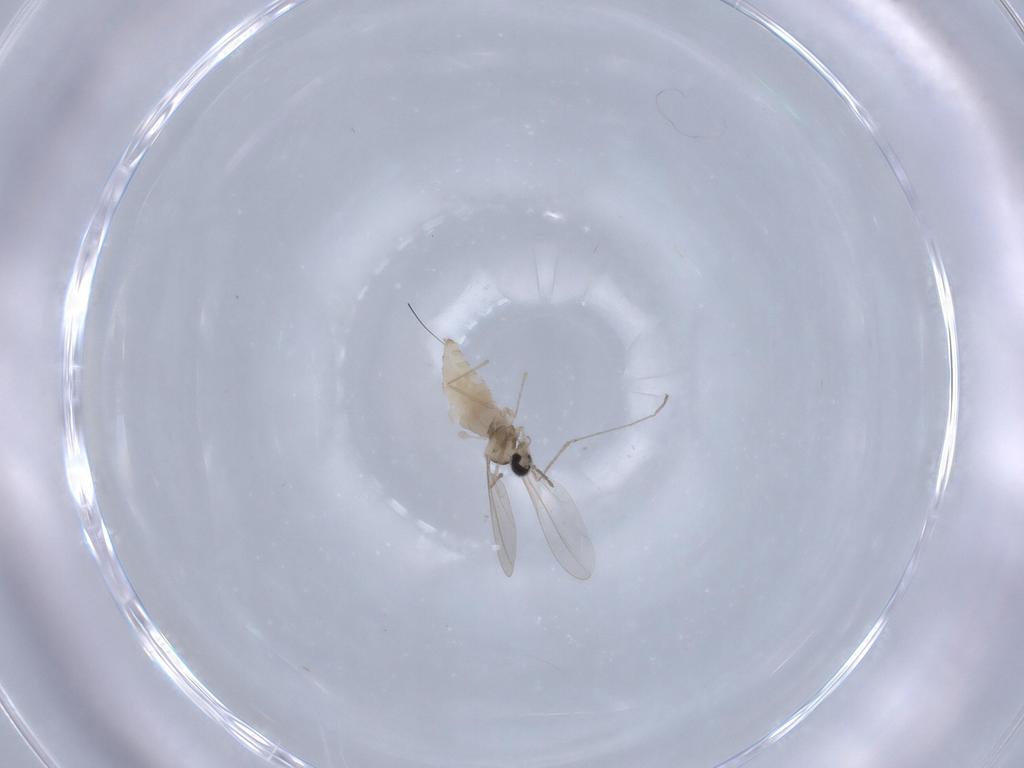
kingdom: Animalia
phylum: Arthropoda
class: Insecta
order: Diptera
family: Cecidomyiidae
